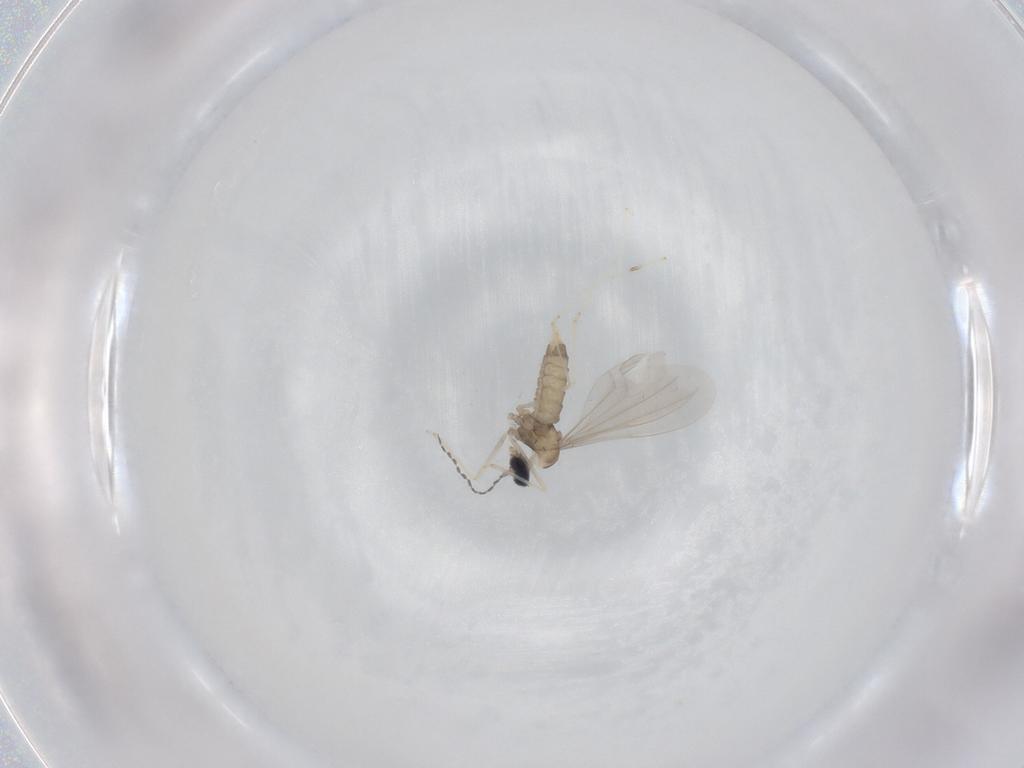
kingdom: Animalia
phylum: Arthropoda
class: Insecta
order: Diptera
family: Cecidomyiidae
